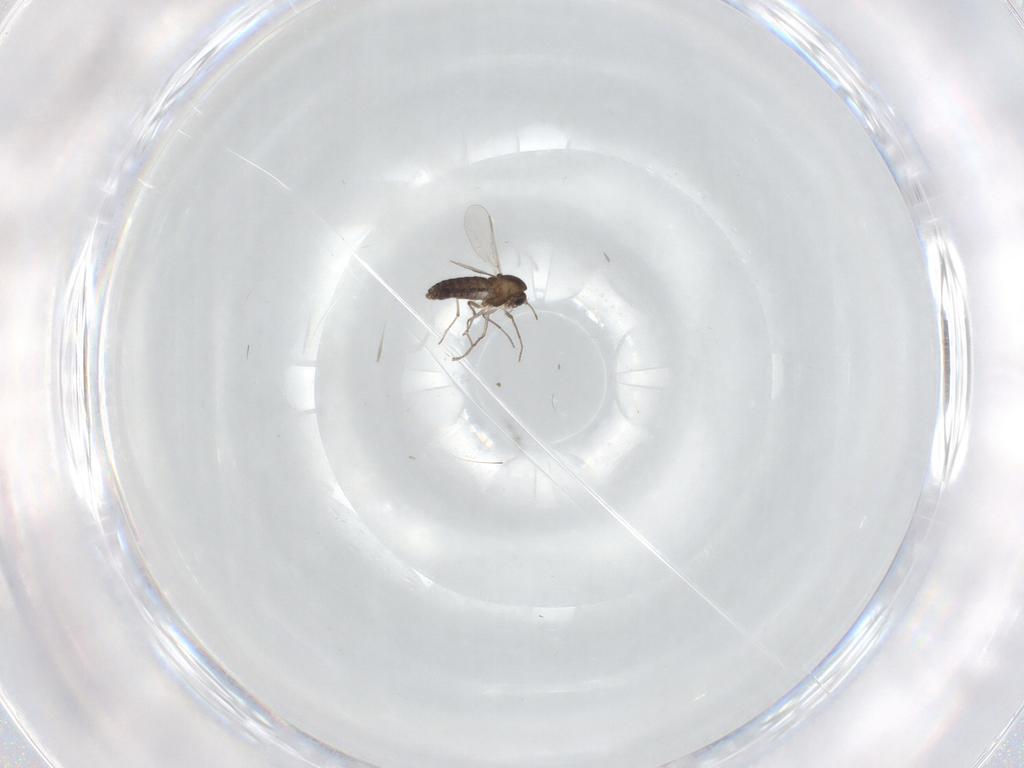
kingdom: Animalia
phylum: Arthropoda
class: Insecta
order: Diptera
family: Chironomidae
